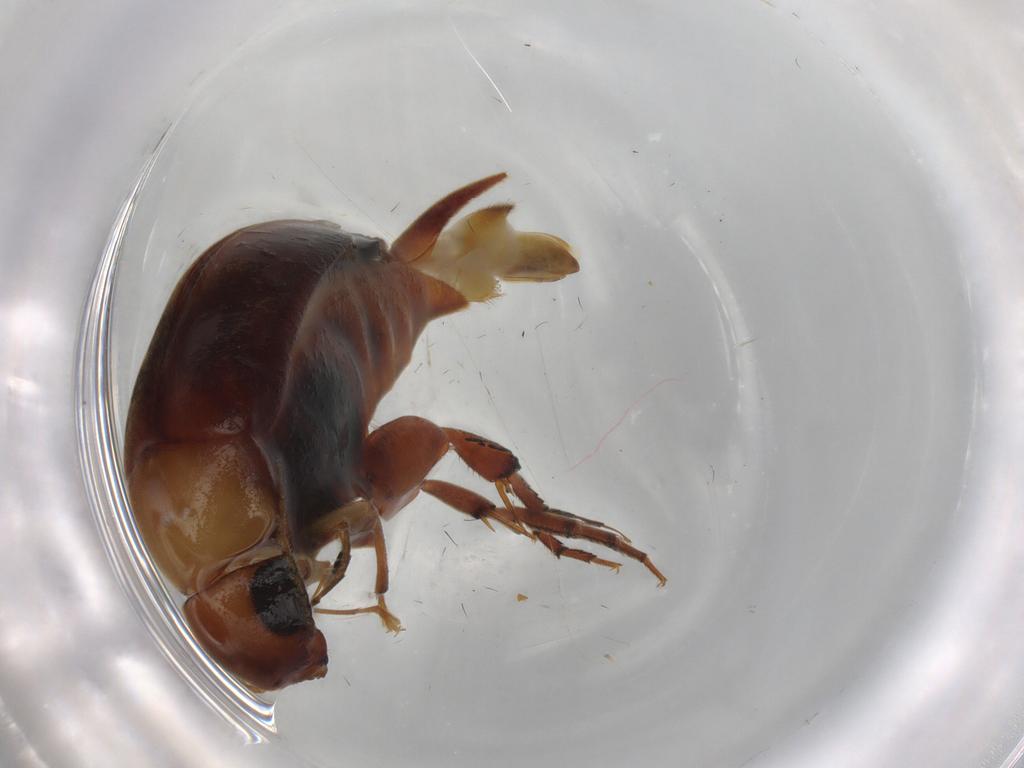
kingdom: Animalia
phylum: Arthropoda
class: Insecta
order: Coleoptera
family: Mordellidae
